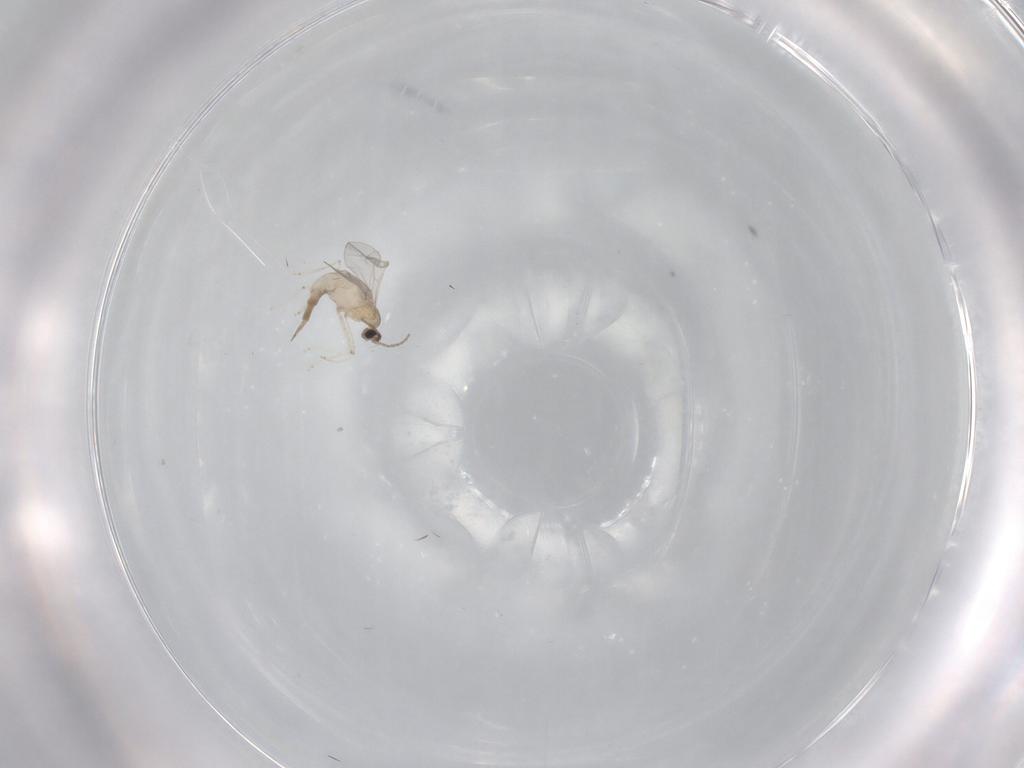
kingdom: Animalia
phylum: Arthropoda
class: Insecta
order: Diptera
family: Cecidomyiidae
